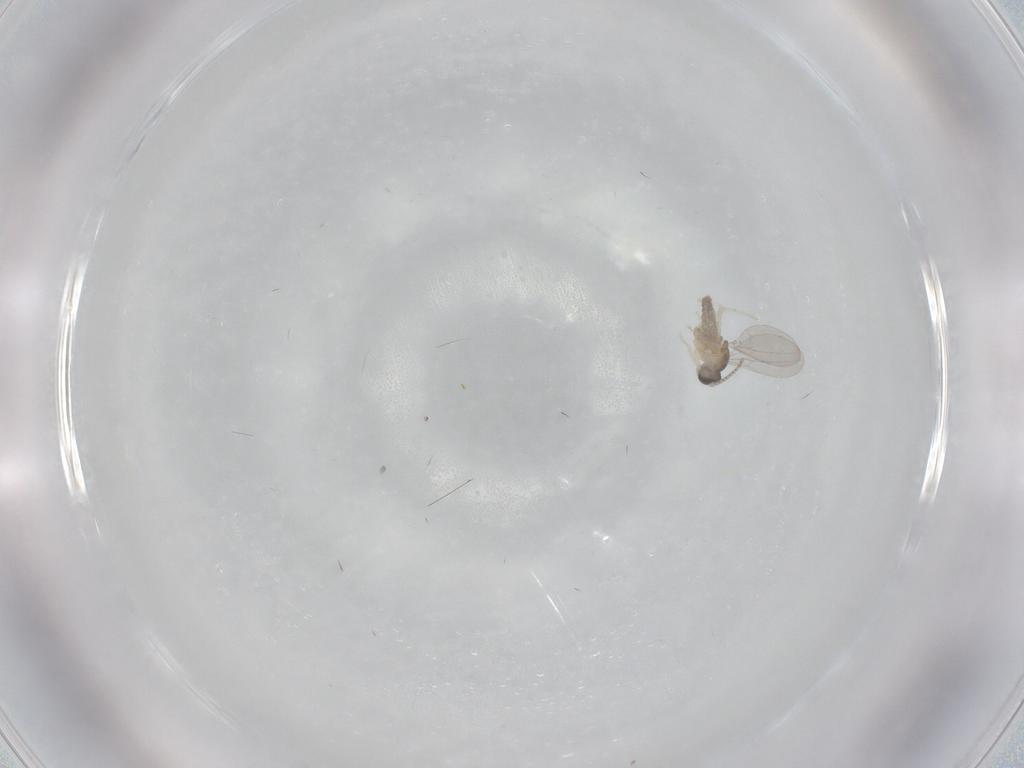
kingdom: Animalia
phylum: Arthropoda
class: Insecta
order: Diptera
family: Cecidomyiidae
